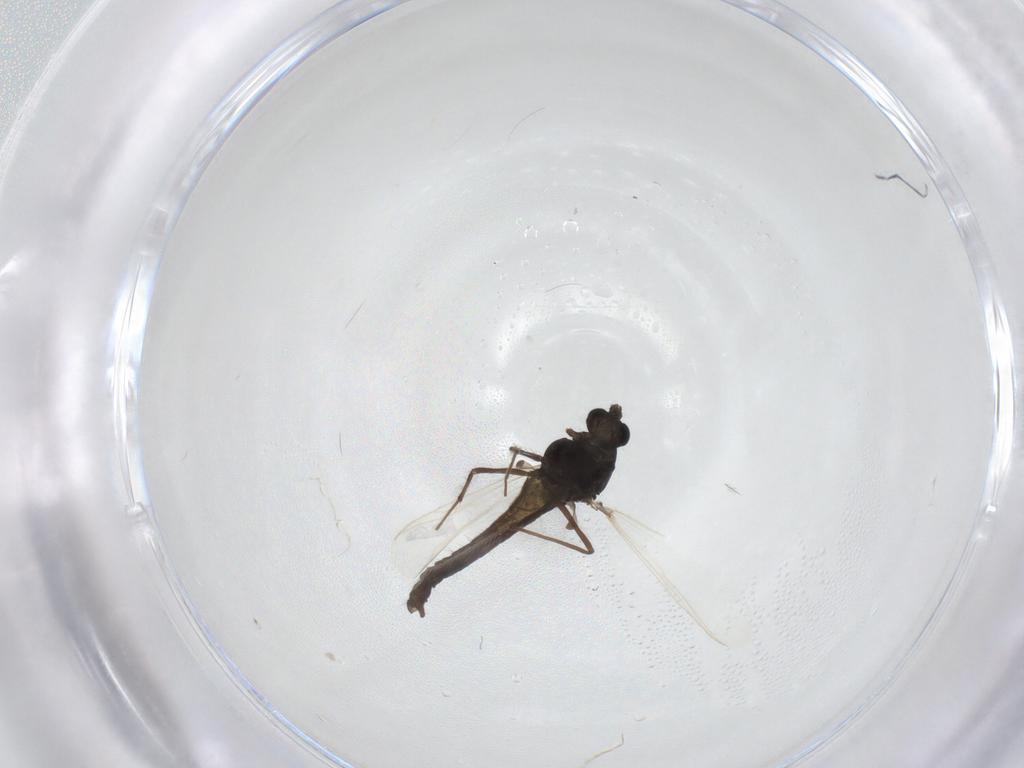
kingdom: Animalia
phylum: Arthropoda
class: Insecta
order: Diptera
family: Chironomidae
